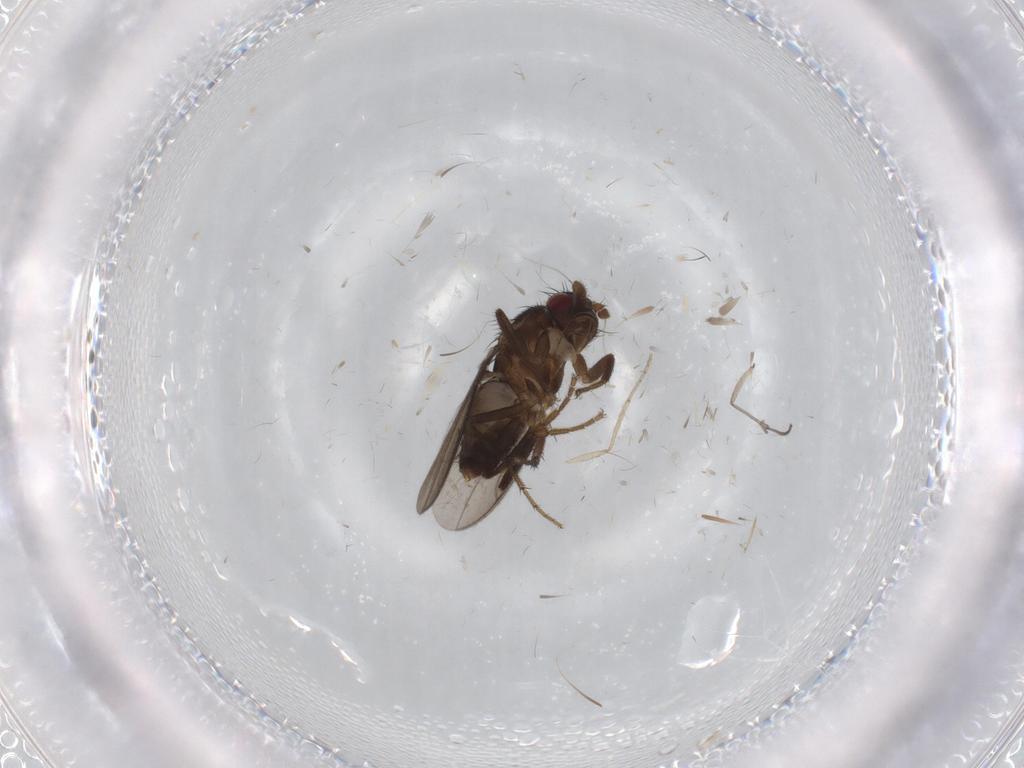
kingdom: Animalia
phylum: Arthropoda
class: Insecta
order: Diptera
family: Sphaeroceridae
